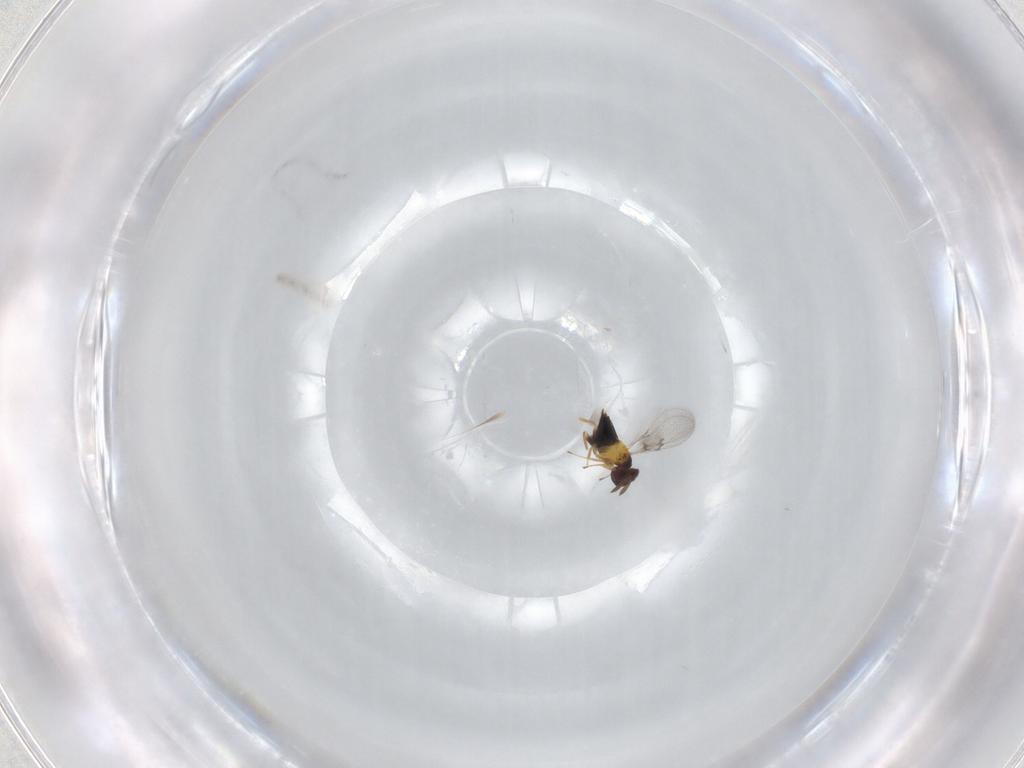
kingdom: Animalia
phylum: Arthropoda
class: Insecta
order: Hymenoptera
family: Trichogrammatidae
